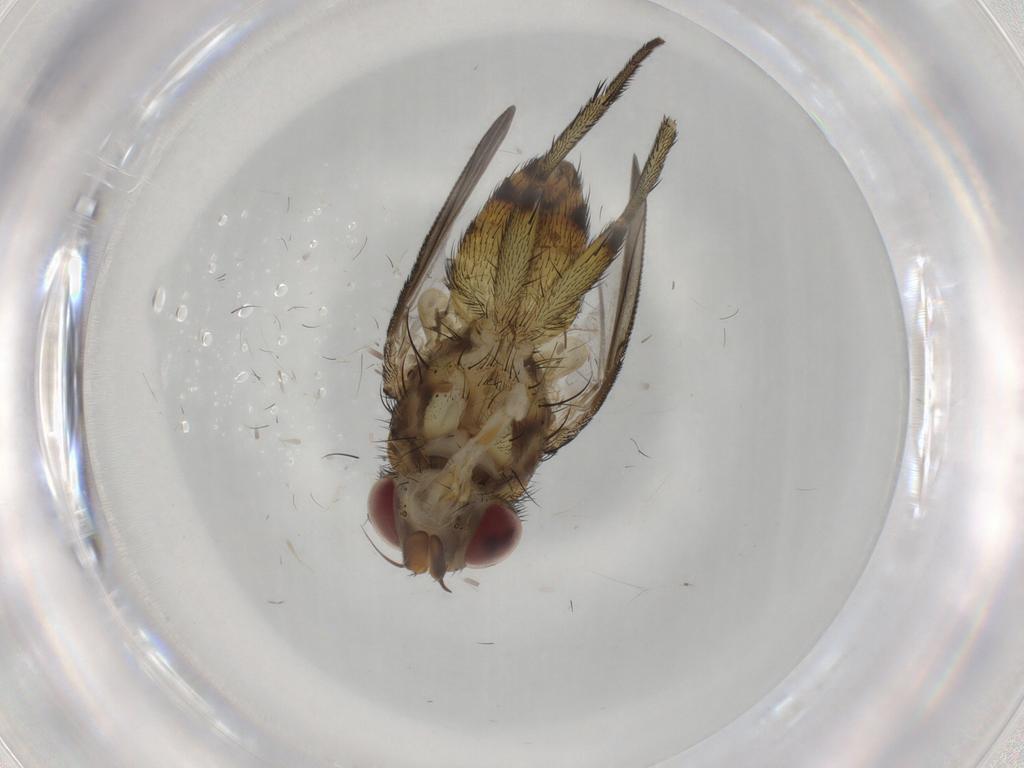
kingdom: Animalia
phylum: Arthropoda
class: Insecta
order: Diptera
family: Tachinidae
